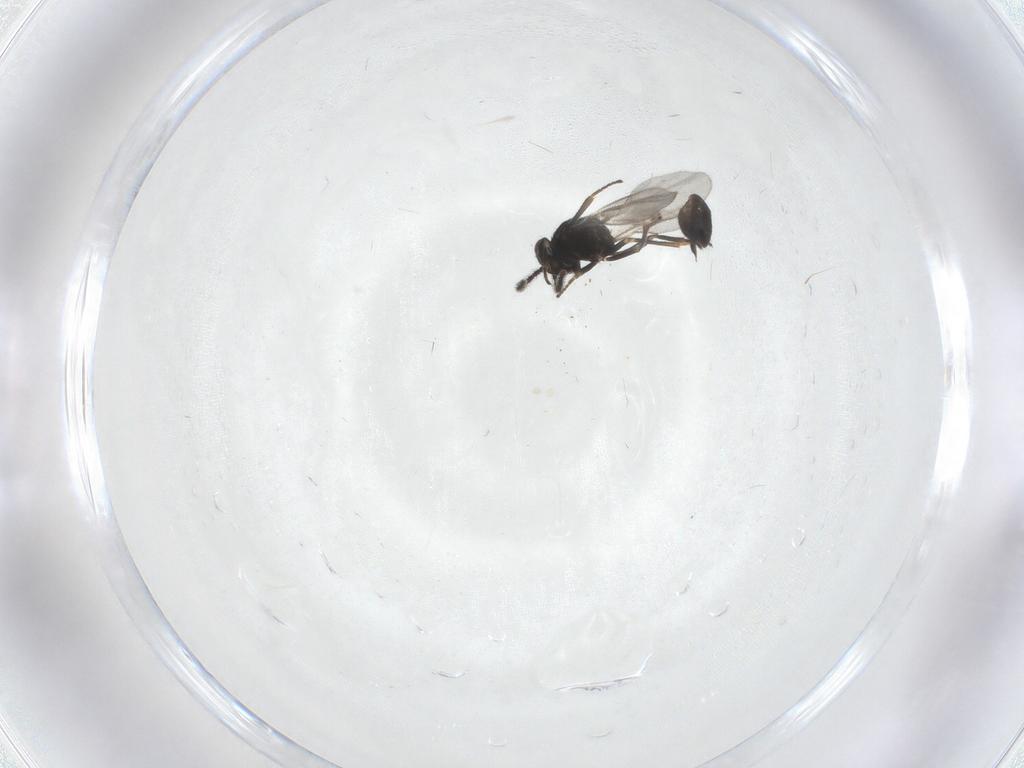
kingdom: Animalia
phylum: Arthropoda
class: Insecta
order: Hymenoptera
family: Encyrtidae
